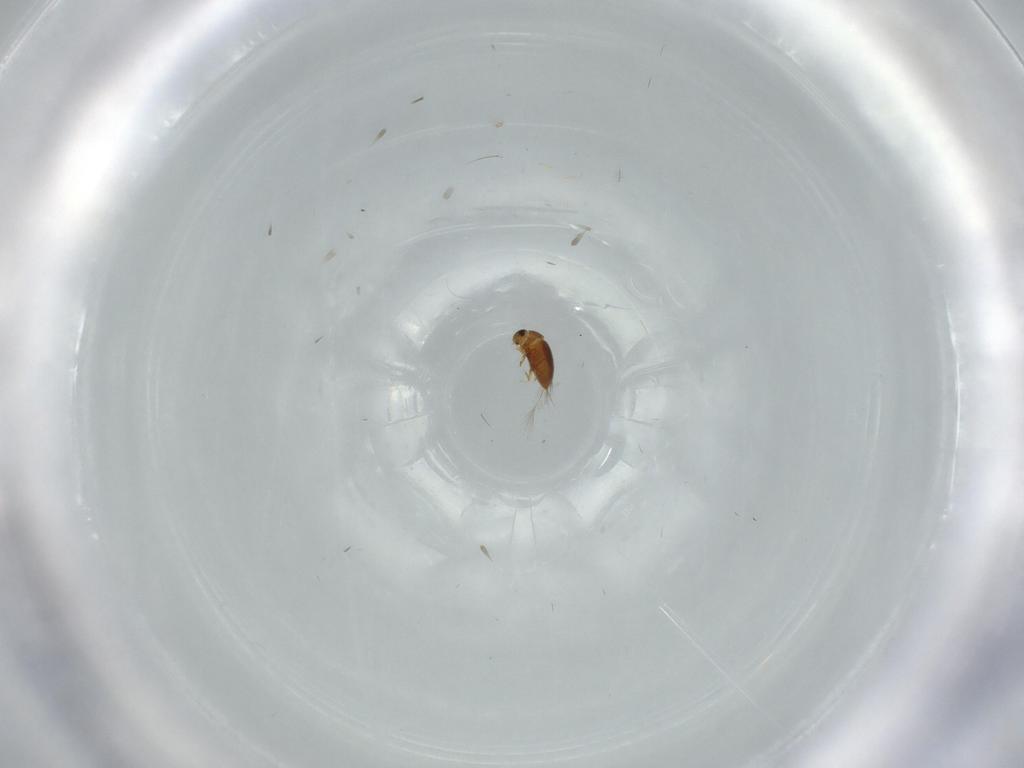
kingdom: Animalia
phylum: Arthropoda
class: Insecta
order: Coleoptera
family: Ptiliidae
